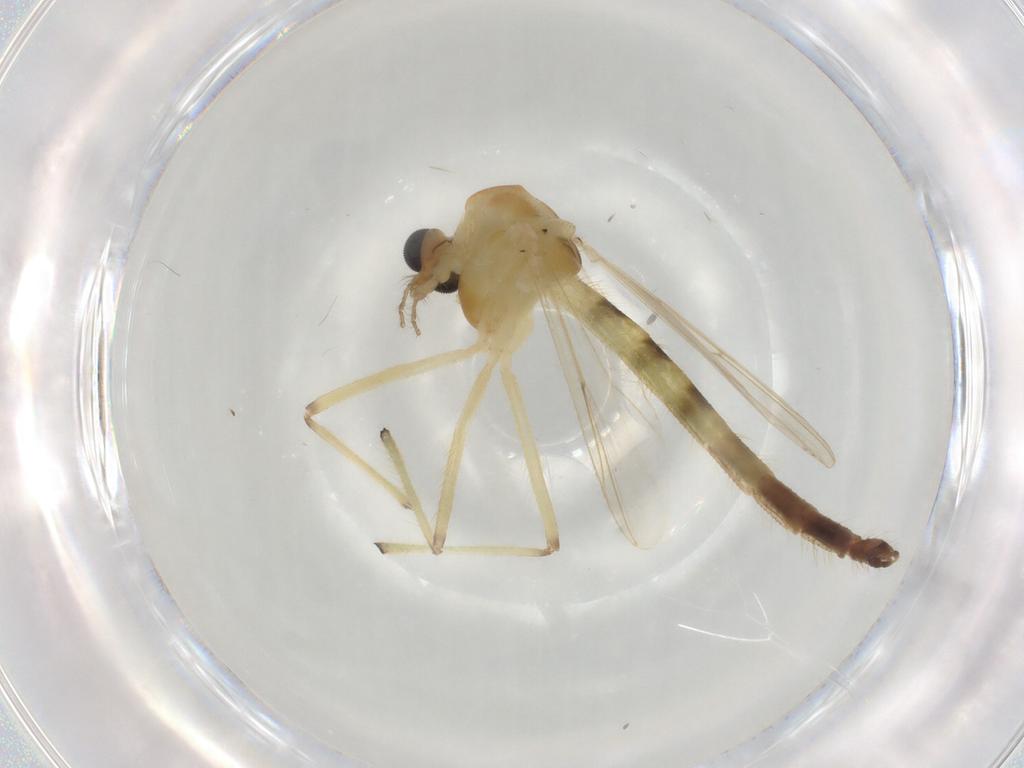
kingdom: Animalia
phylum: Arthropoda
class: Insecta
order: Diptera
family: Chironomidae
